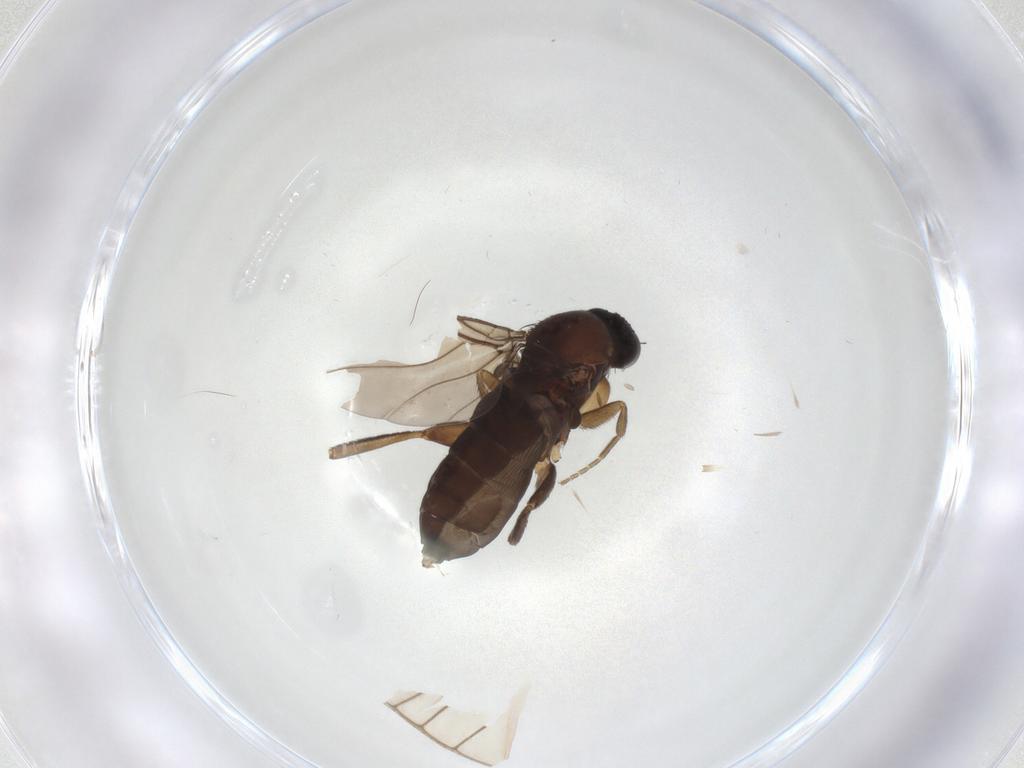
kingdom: Animalia
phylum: Arthropoda
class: Insecta
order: Diptera
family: Phoridae
